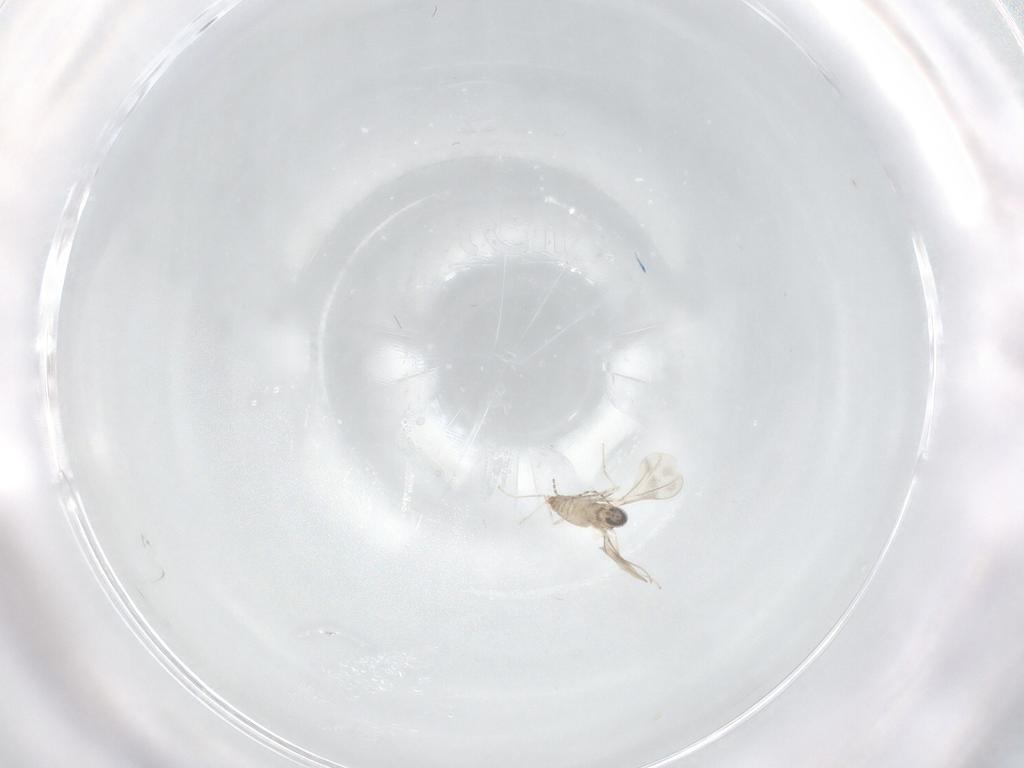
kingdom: Animalia
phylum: Arthropoda
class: Insecta
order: Diptera
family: Cecidomyiidae
